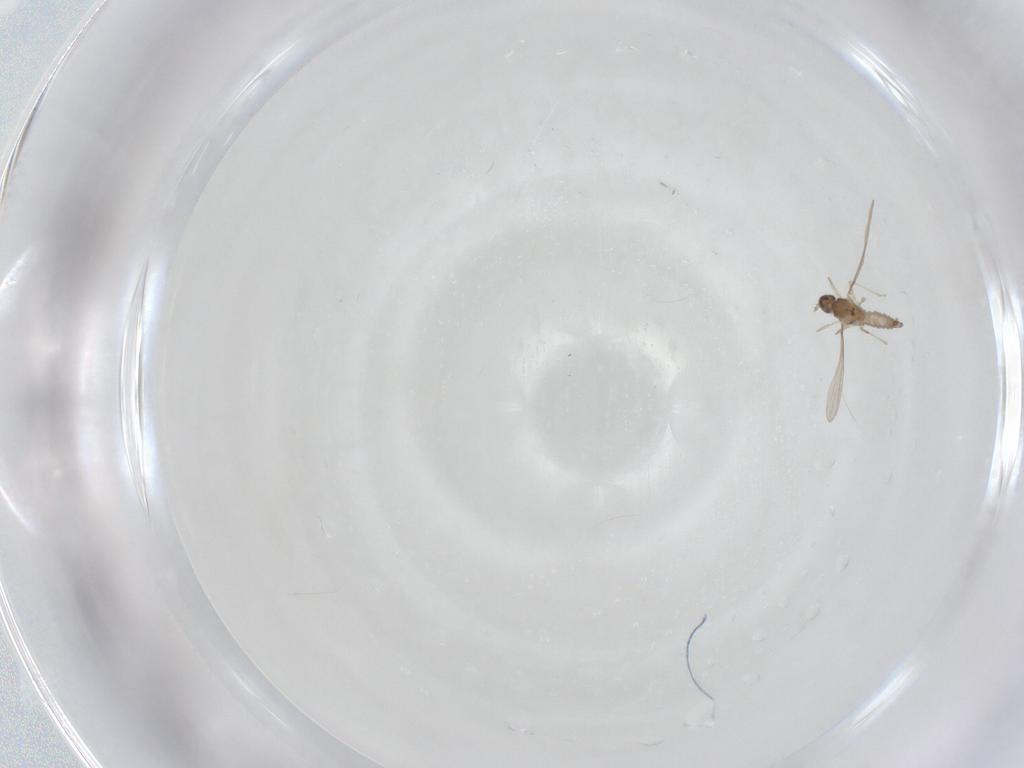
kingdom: Animalia
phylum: Arthropoda
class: Insecta
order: Diptera
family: Cecidomyiidae
